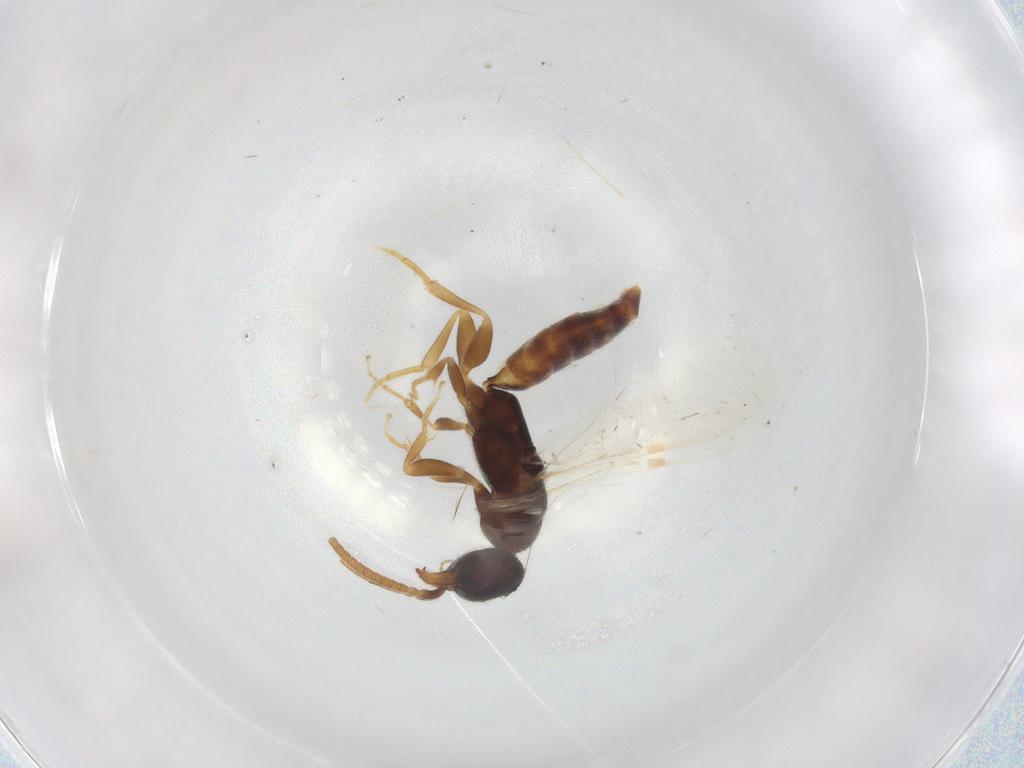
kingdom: Animalia
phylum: Arthropoda
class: Insecta
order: Hymenoptera
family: Bethylidae
